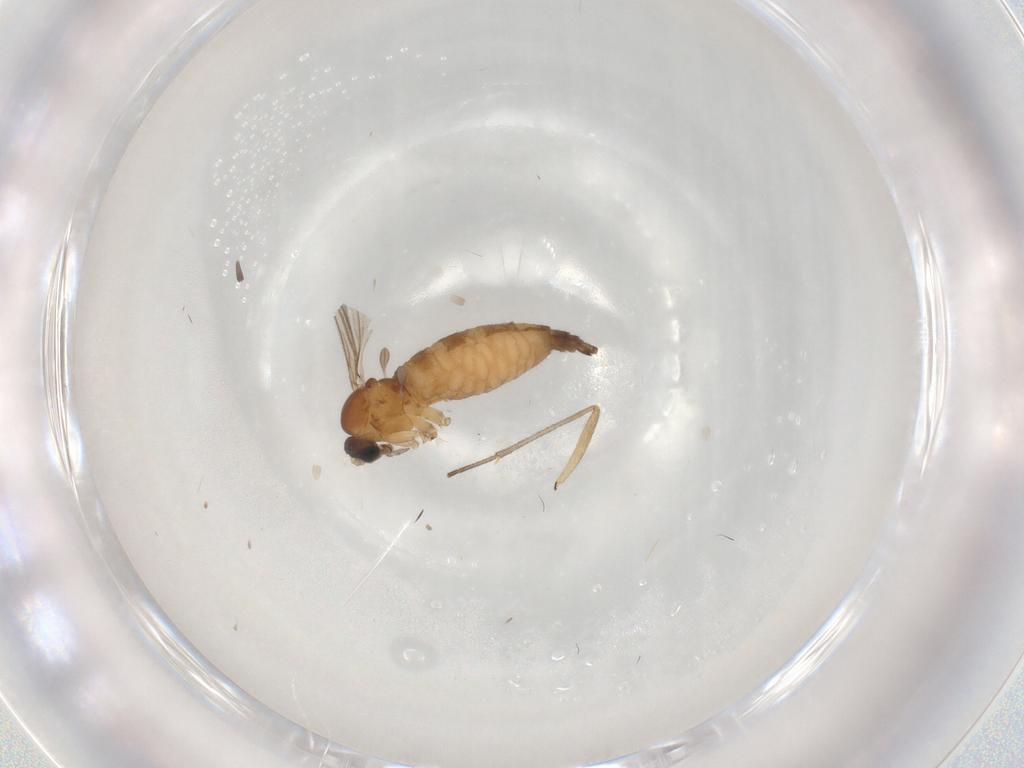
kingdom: Animalia
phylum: Arthropoda
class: Insecta
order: Diptera
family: Sciaridae
